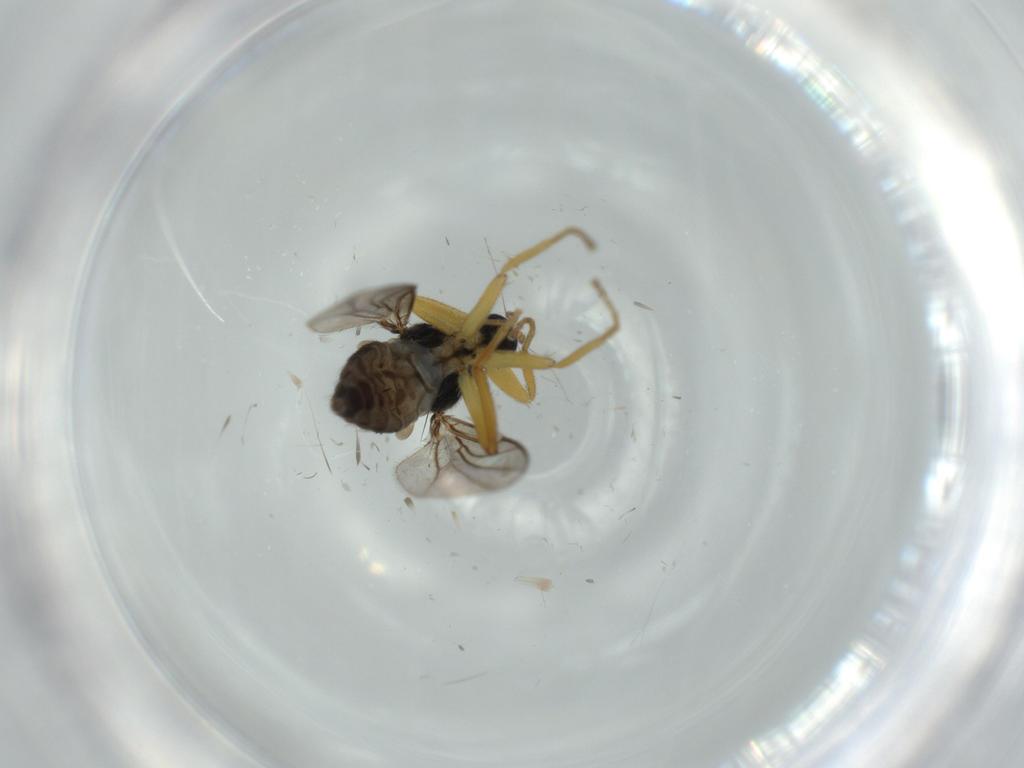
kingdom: Animalia
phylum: Arthropoda
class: Insecta
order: Diptera
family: Hybotidae
